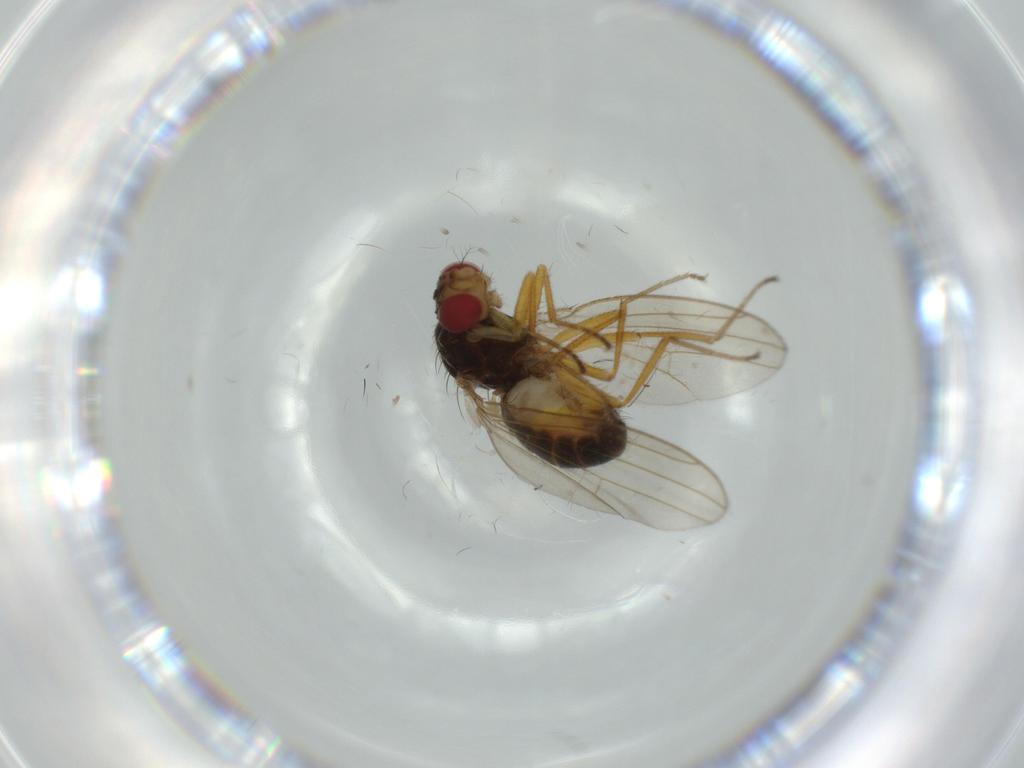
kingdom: Animalia
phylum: Arthropoda
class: Insecta
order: Diptera
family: Drosophilidae
